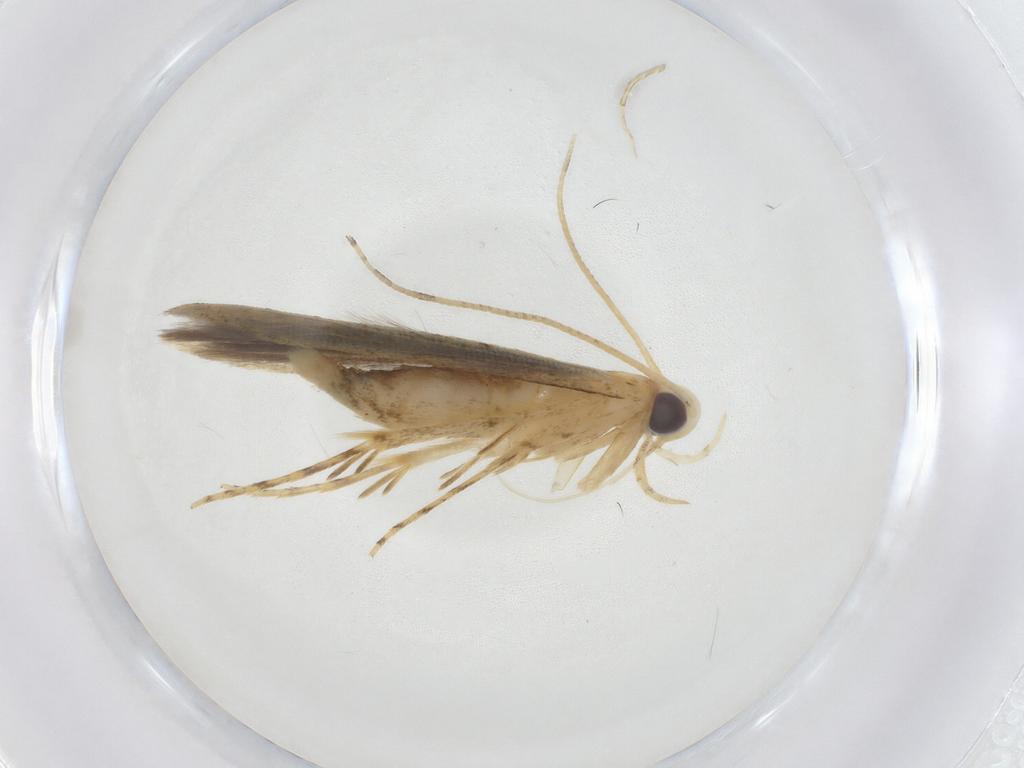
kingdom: Animalia
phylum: Arthropoda
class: Insecta
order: Lepidoptera
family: Batrachedridae
